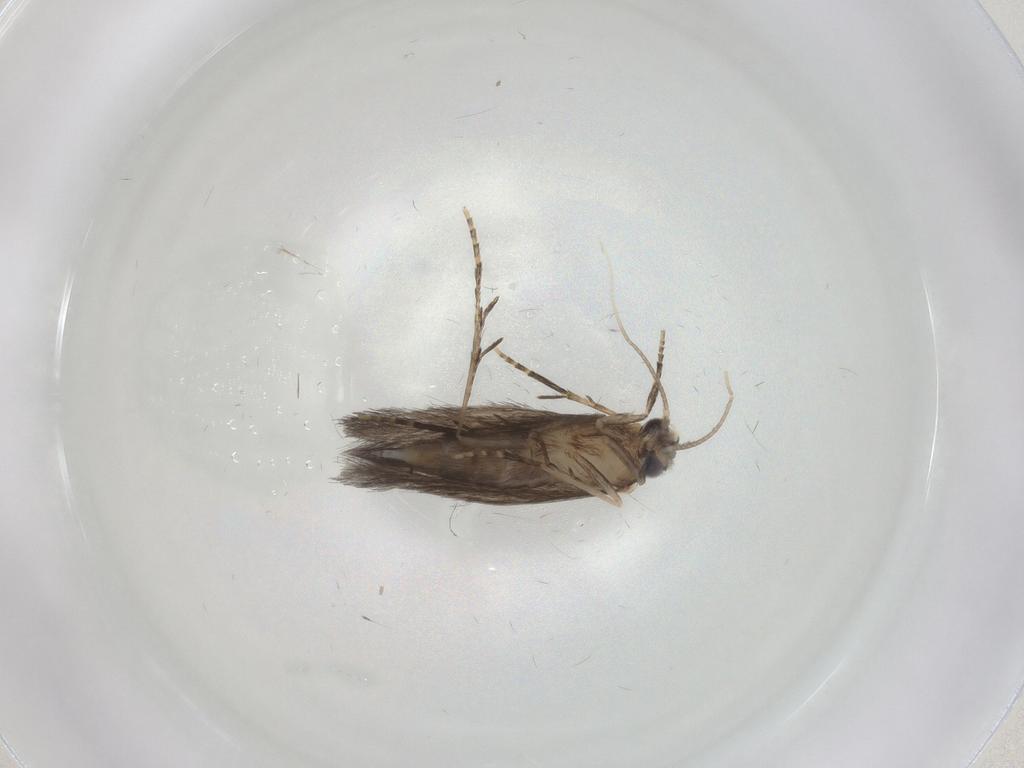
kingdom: Animalia
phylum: Arthropoda
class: Insecta
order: Trichoptera
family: Hydroptilidae
